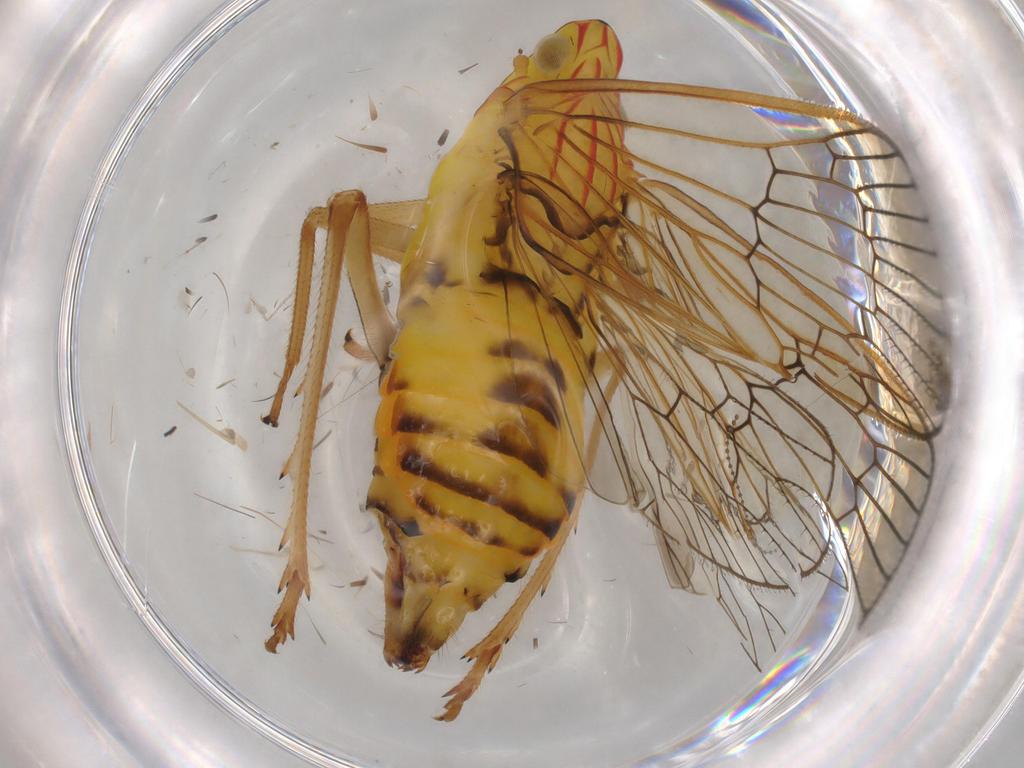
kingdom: Animalia
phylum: Arthropoda
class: Insecta
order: Hemiptera
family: Tropiduchidae
